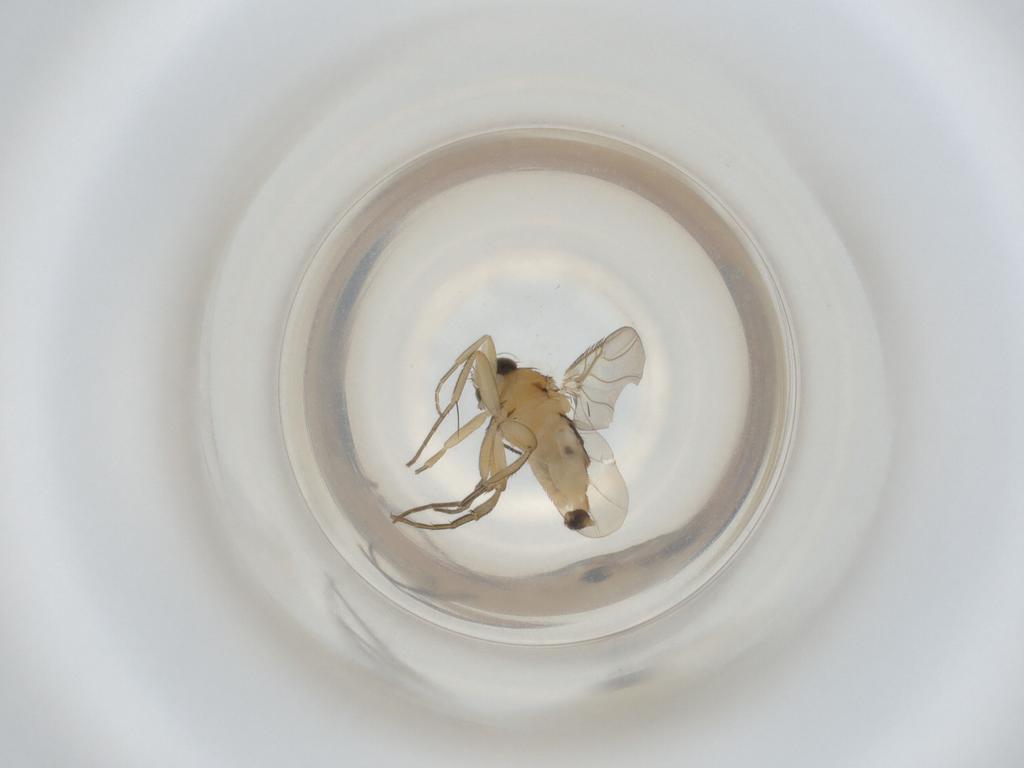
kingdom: Animalia
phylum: Arthropoda
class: Insecta
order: Diptera
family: Phoridae
